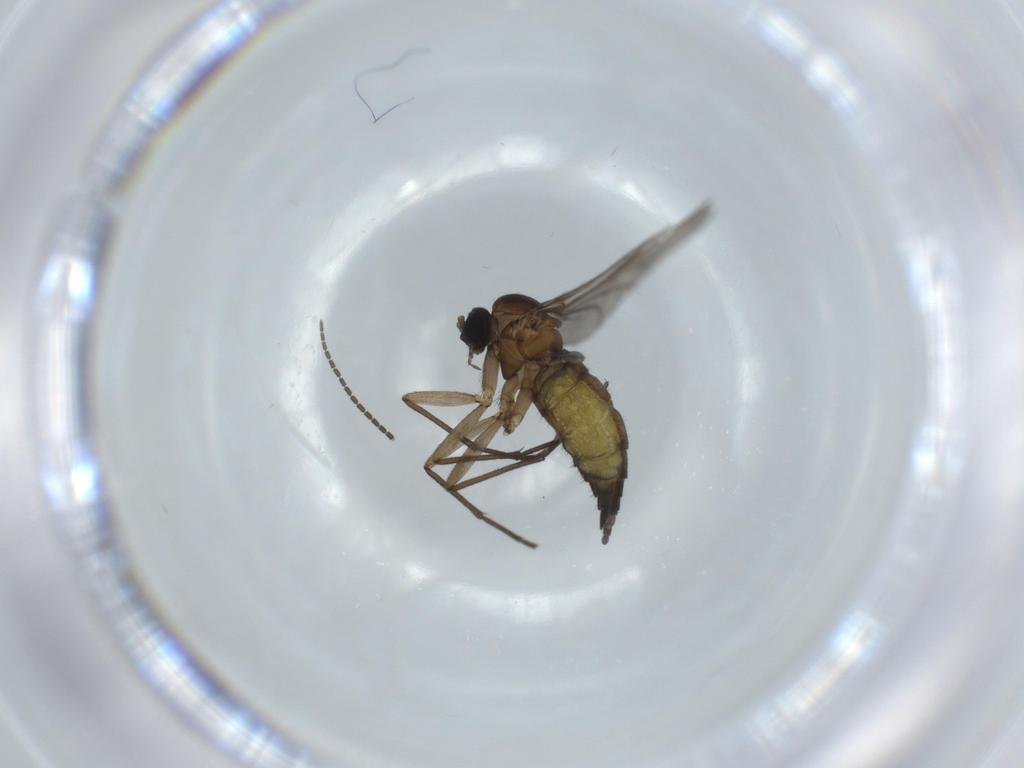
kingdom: Animalia
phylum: Arthropoda
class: Insecta
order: Diptera
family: Sciaridae
